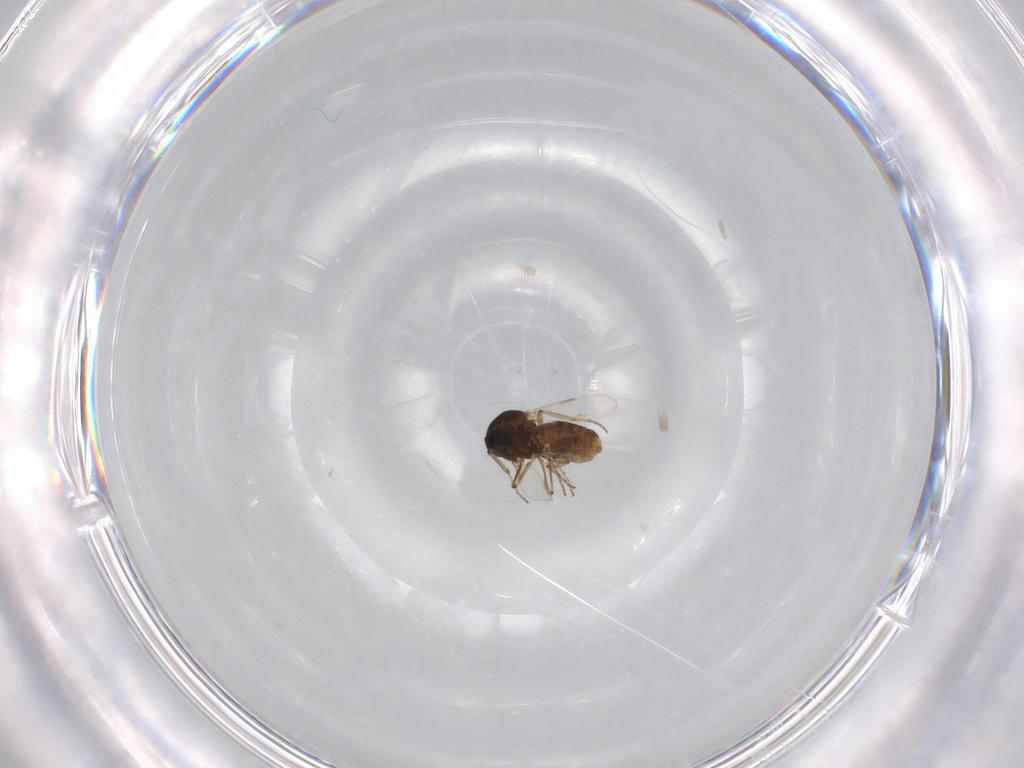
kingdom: Animalia
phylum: Arthropoda
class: Insecta
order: Diptera
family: Ceratopogonidae
